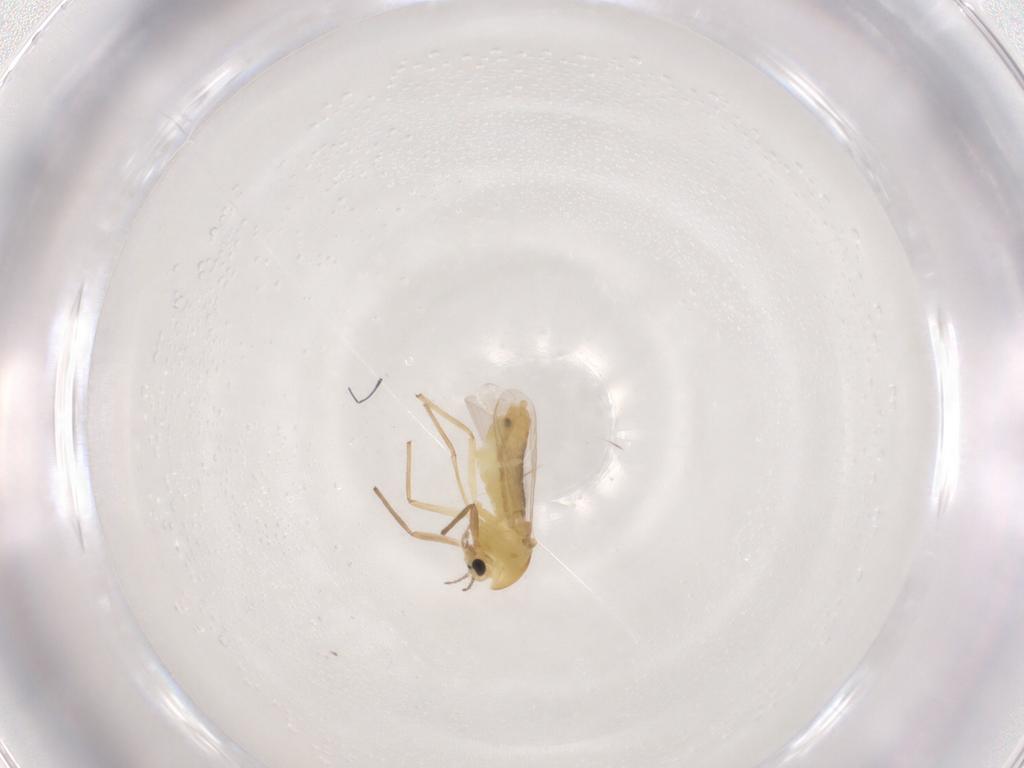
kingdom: Animalia
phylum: Arthropoda
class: Insecta
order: Diptera
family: Chironomidae
